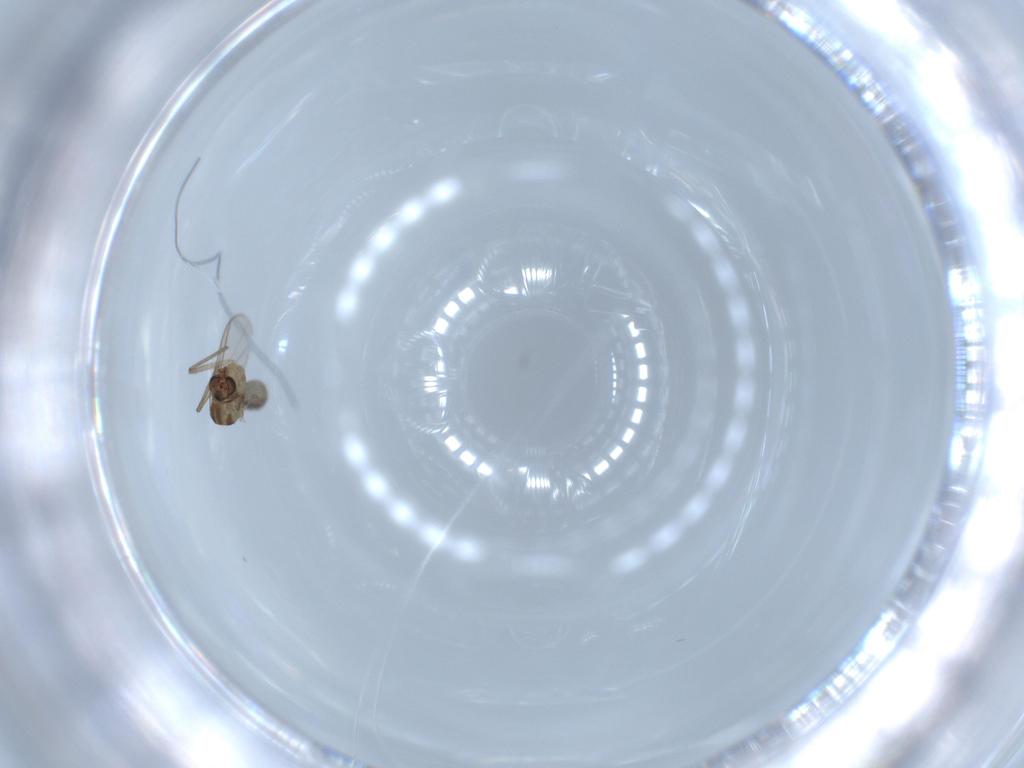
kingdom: Animalia
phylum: Arthropoda
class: Insecta
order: Diptera
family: Chironomidae
